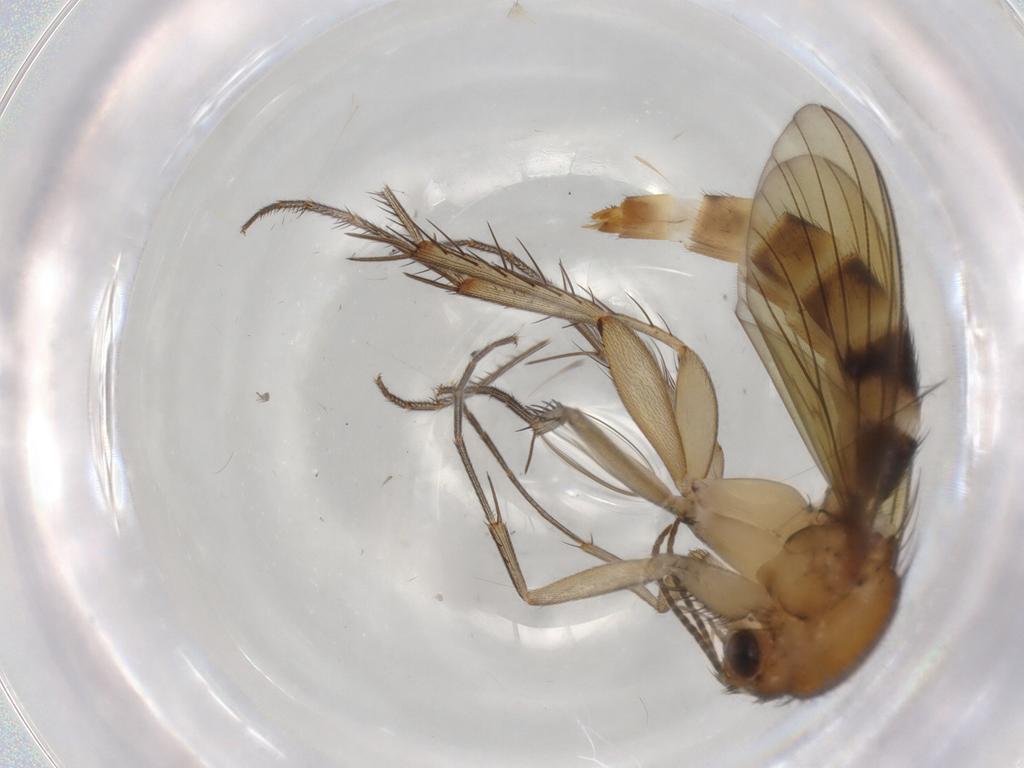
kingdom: Animalia
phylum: Arthropoda
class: Insecta
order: Diptera
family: Mycetophilidae
